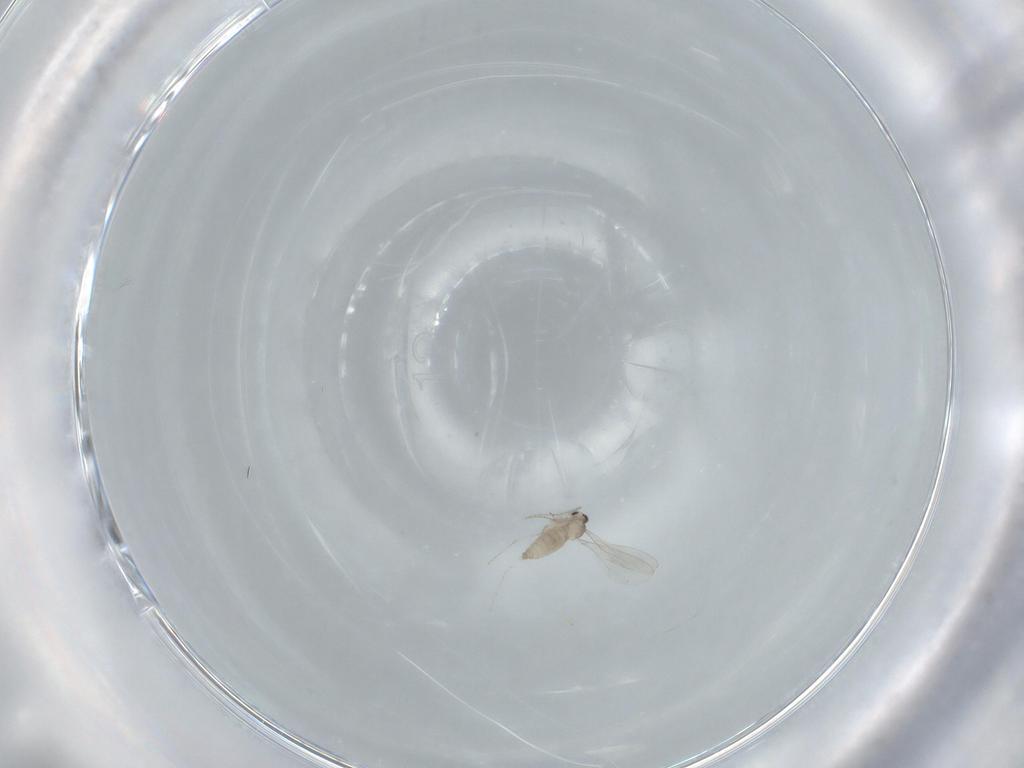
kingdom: Animalia
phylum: Arthropoda
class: Insecta
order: Diptera
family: Cecidomyiidae
